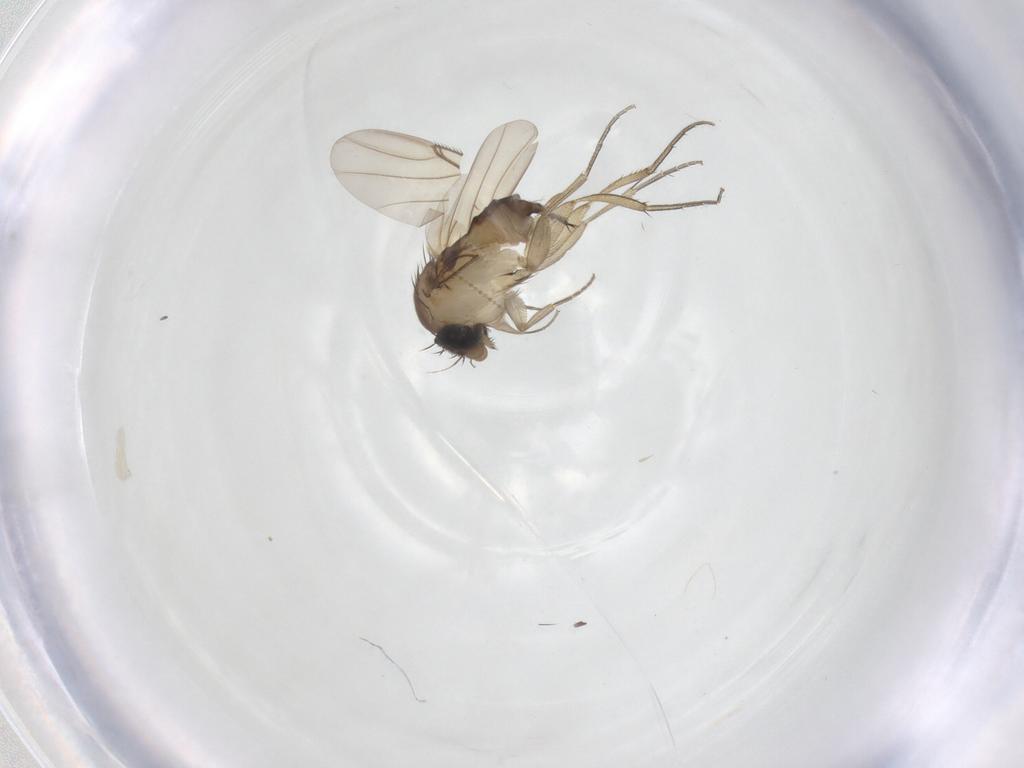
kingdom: Animalia
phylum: Arthropoda
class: Insecta
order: Diptera
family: Phoridae
